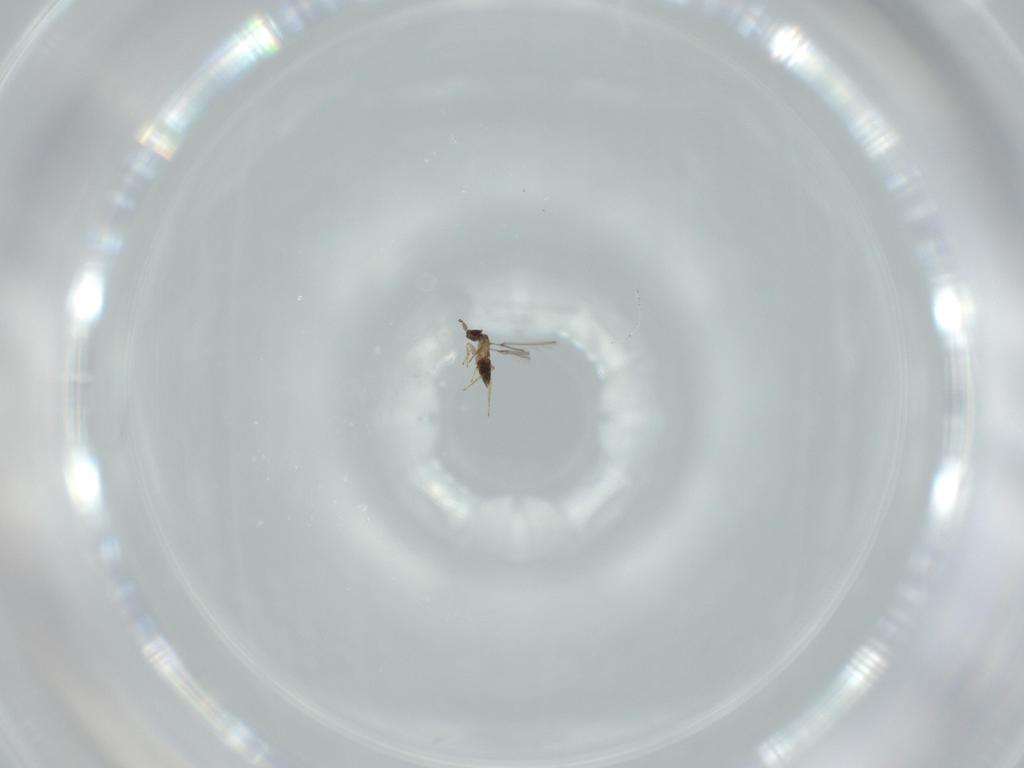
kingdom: Animalia
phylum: Arthropoda
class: Insecta
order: Hymenoptera
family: Mymaridae
